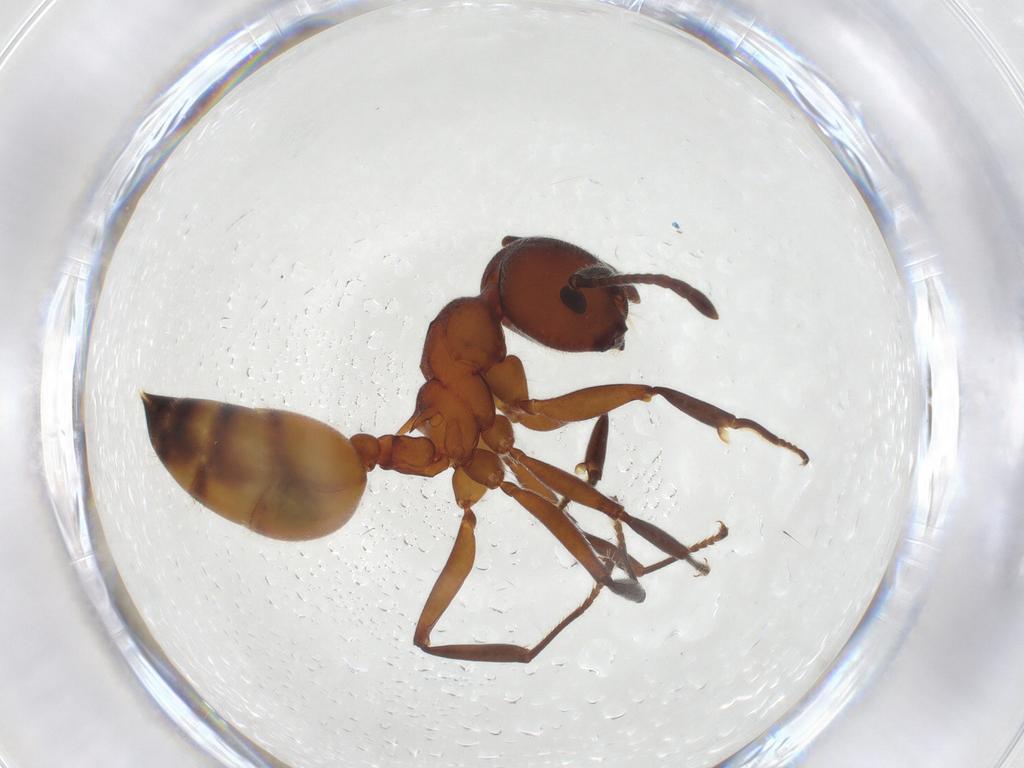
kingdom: Animalia
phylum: Arthropoda
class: Insecta
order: Hymenoptera
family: Formicidae
